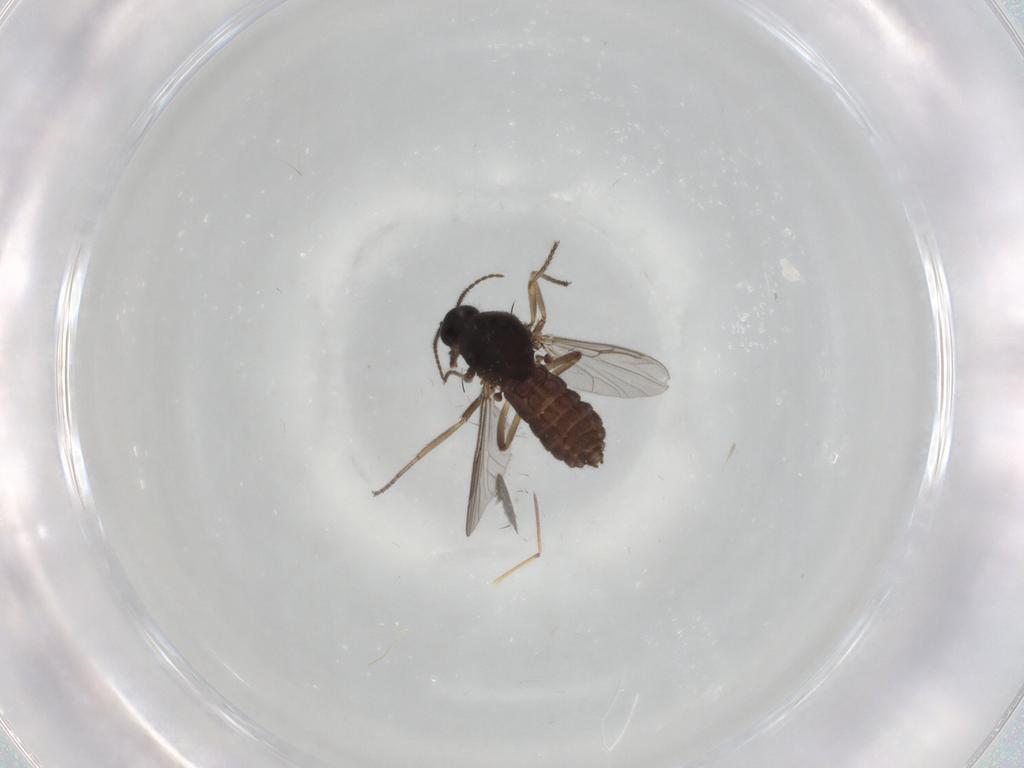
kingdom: Animalia
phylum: Arthropoda
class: Insecta
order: Diptera
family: Ceratopogonidae
